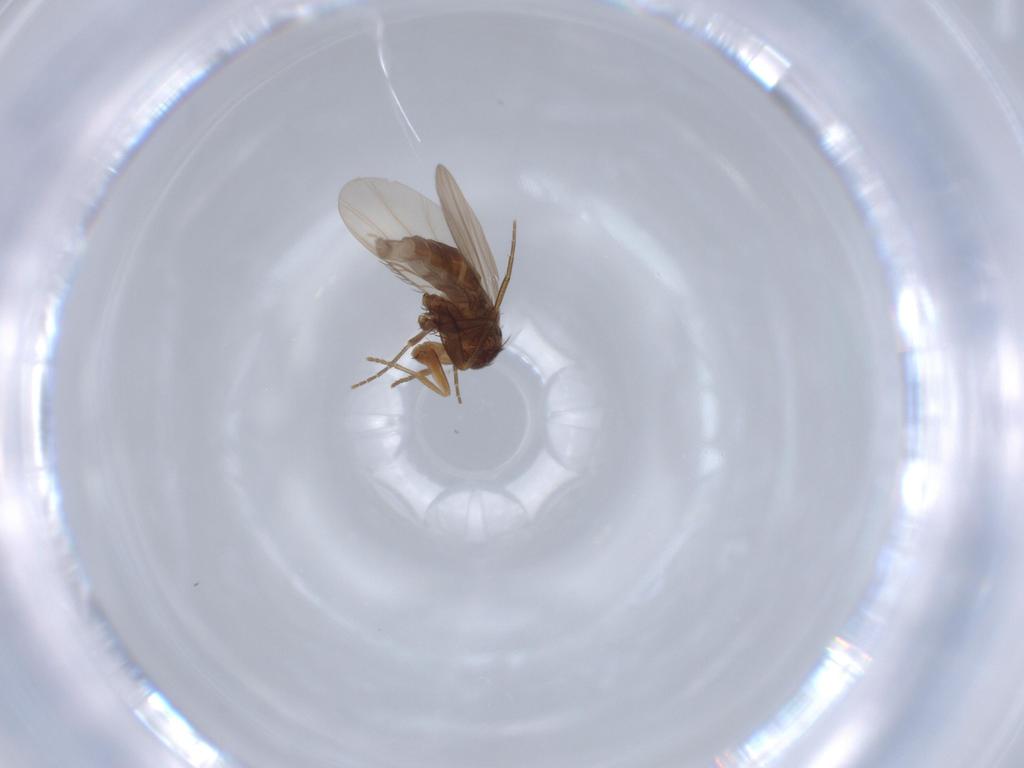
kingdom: Animalia
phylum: Arthropoda
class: Insecta
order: Diptera
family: Cecidomyiidae
